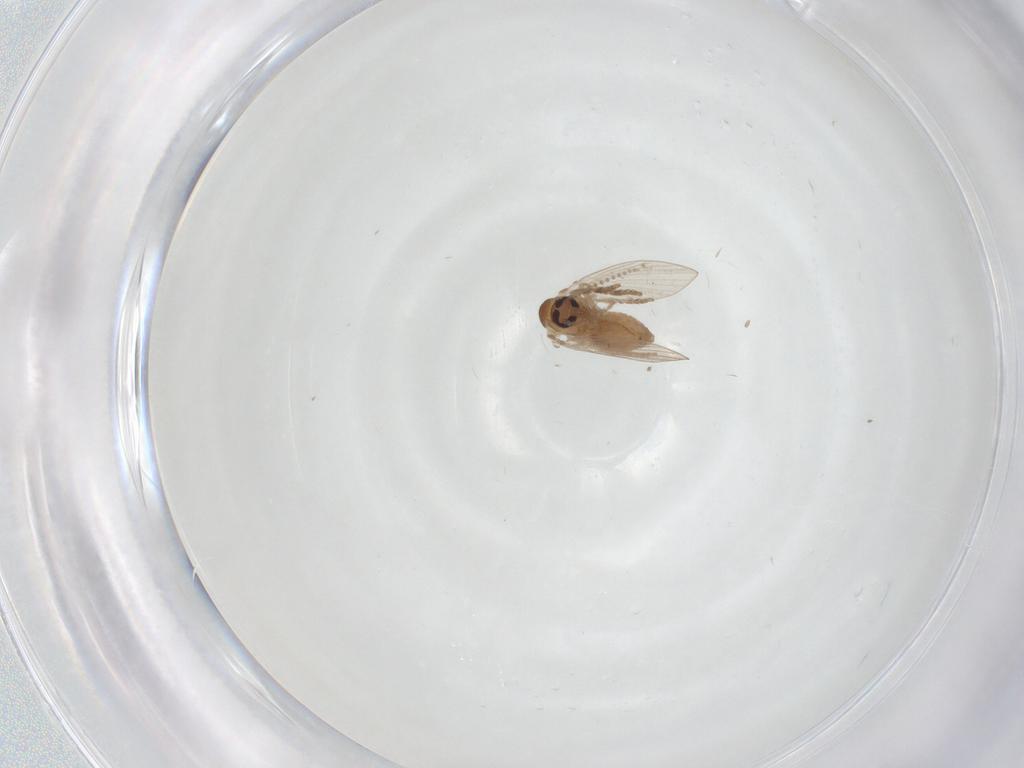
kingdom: Animalia
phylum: Arthropoda
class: Insecta
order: Diptera
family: Psychodidae
